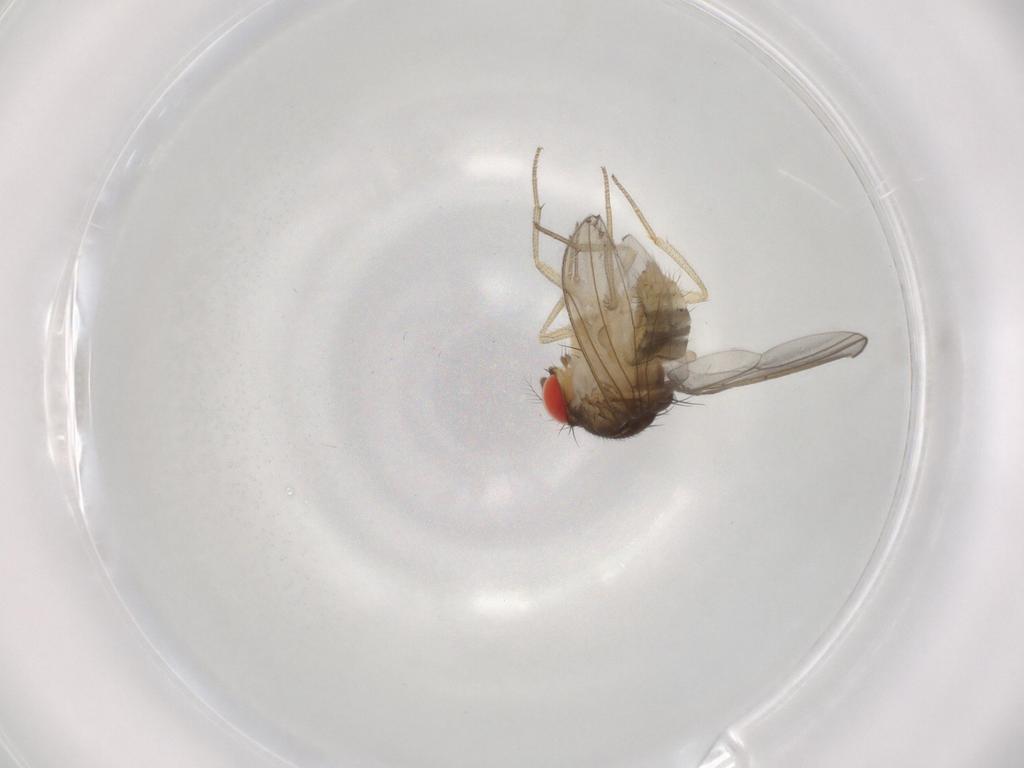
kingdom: Animalia
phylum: Arthropoda
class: Insecta
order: Diptera
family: Drosophilidae
